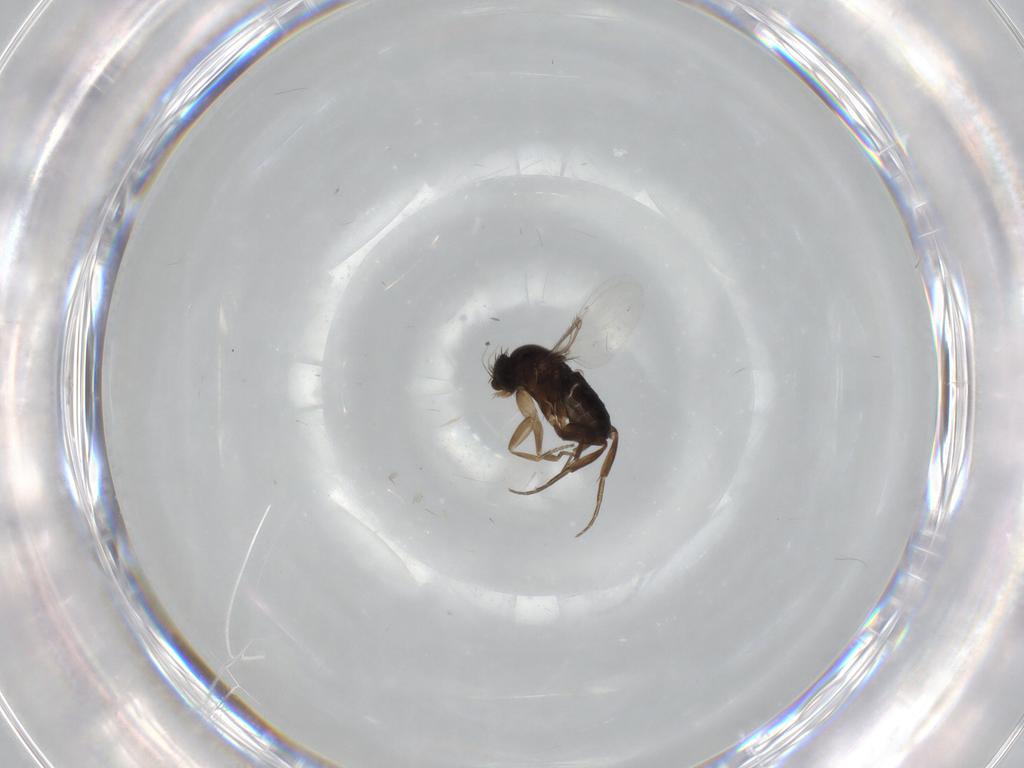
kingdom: Animalia
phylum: Arthropoda
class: Insecta
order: Diptera
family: Phoridae
